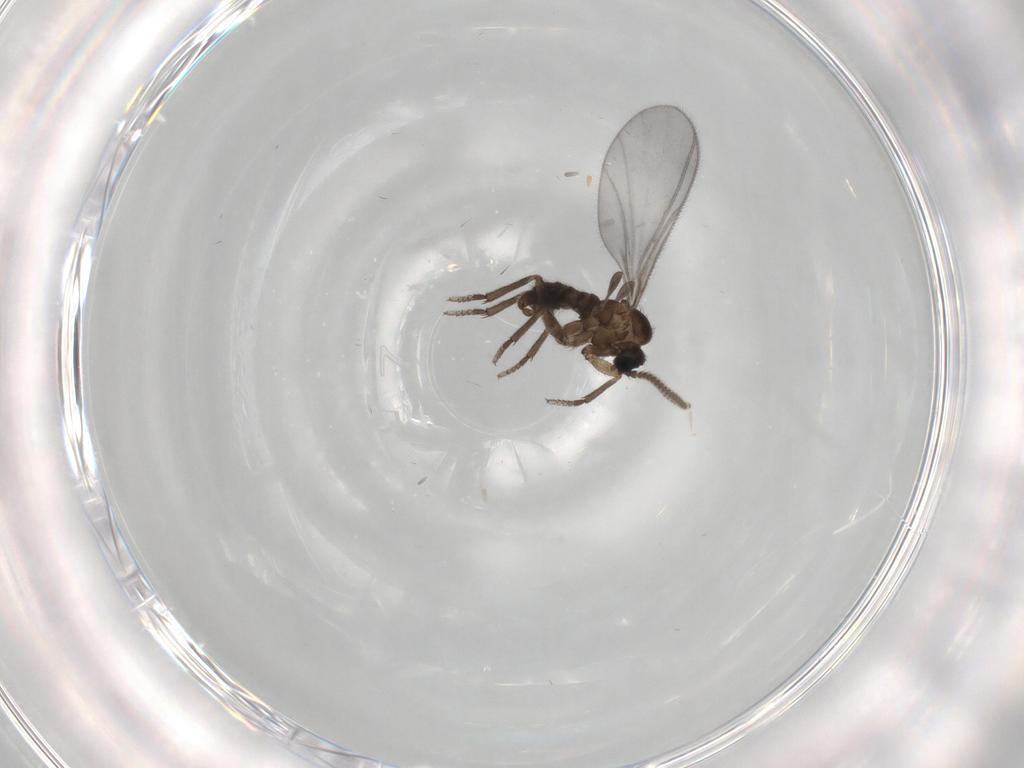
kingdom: Animalia
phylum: Arthropoda
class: Insecta
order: Diptera
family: Sciaridae
